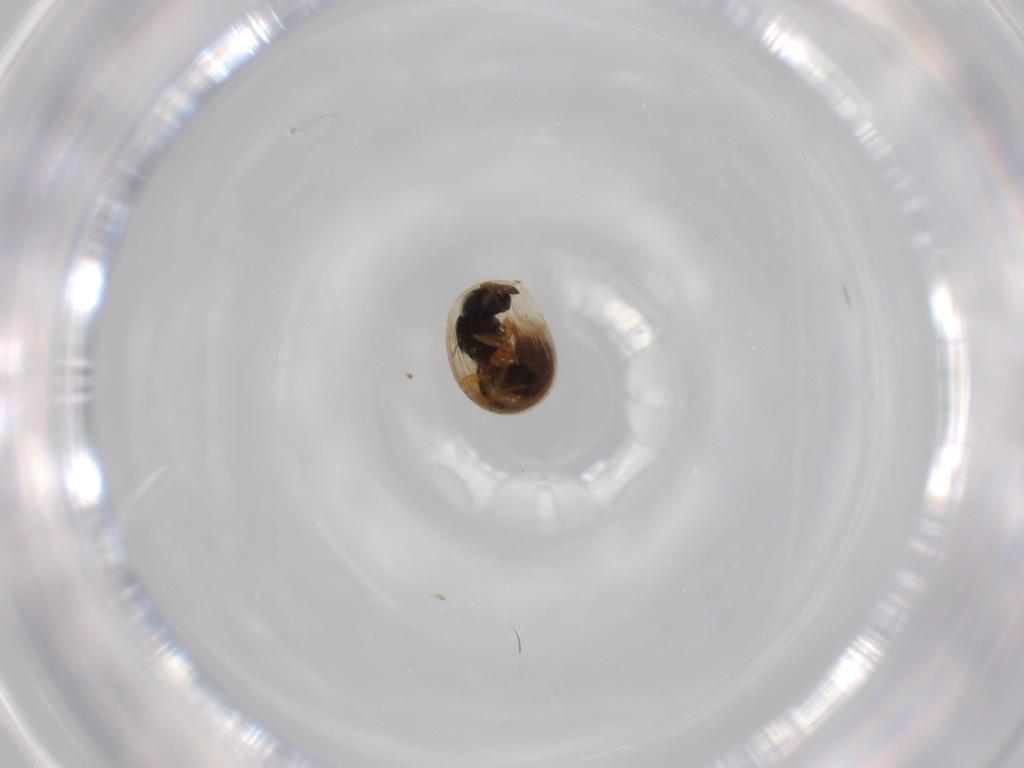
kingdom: Animalia
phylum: Arthropoda
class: Insecta
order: Hymenoptera
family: Scelionidae
